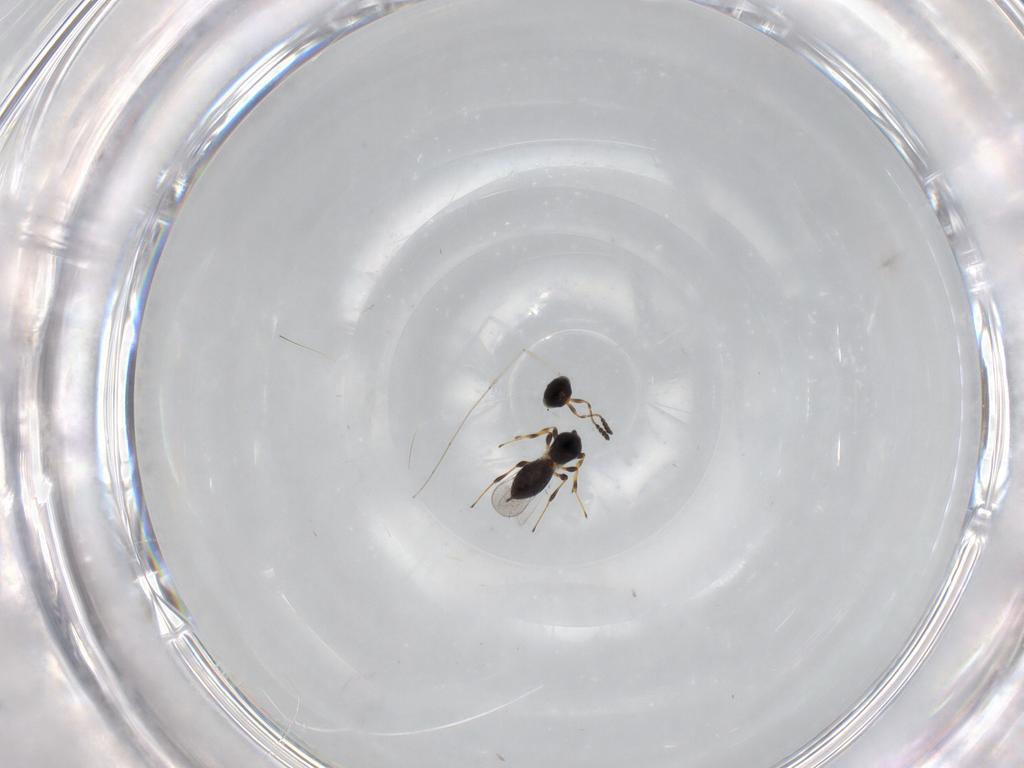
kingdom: Animalia
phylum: Arthropoda
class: Insecta
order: Hymenoptera
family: Platygastridae
